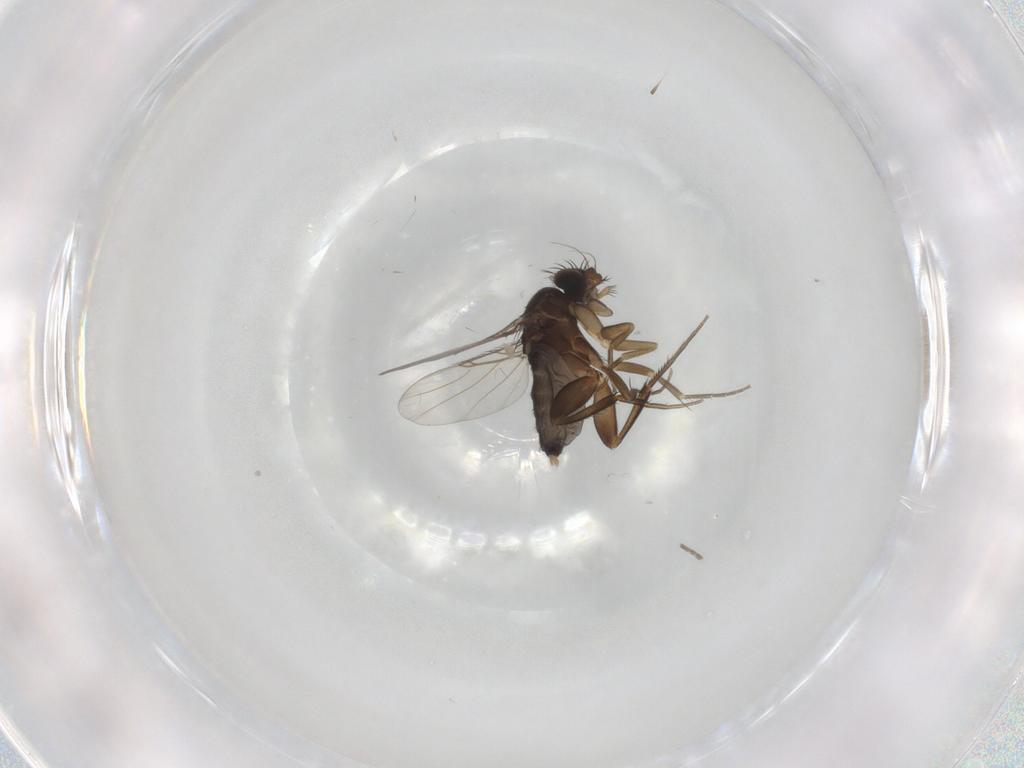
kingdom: Animalia
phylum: Arthropoda
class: Insecta
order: Diptera
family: Phoridae
